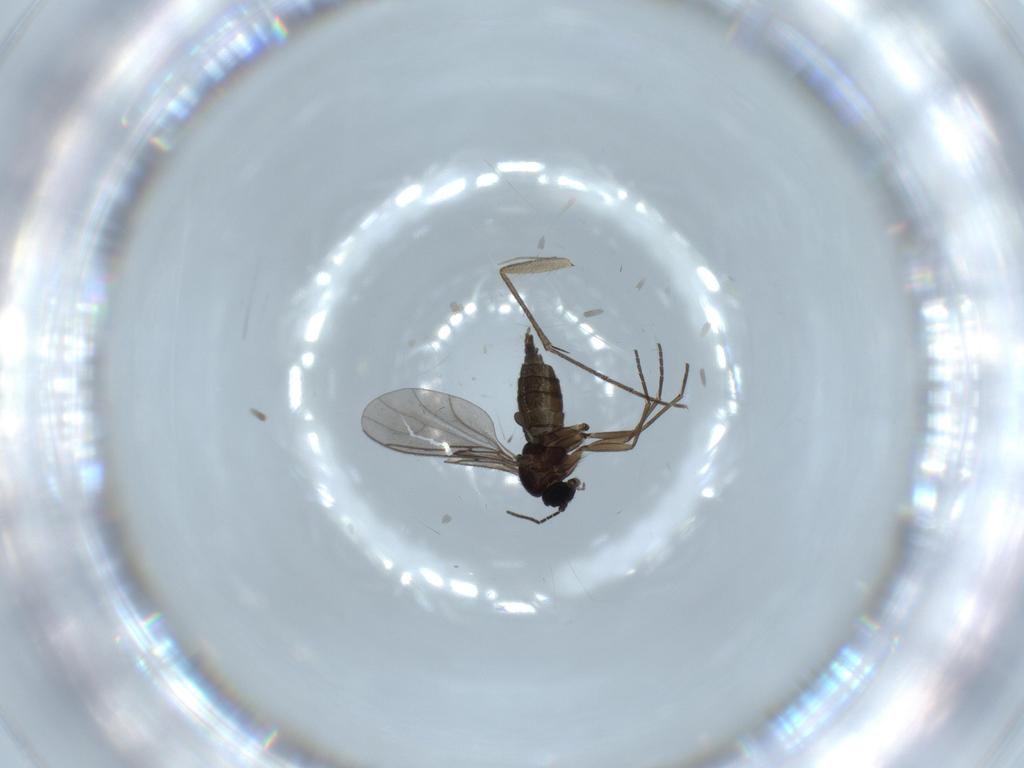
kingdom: Animalia
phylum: Arthropoda
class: Insecta
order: Diptera
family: Sciaridae
